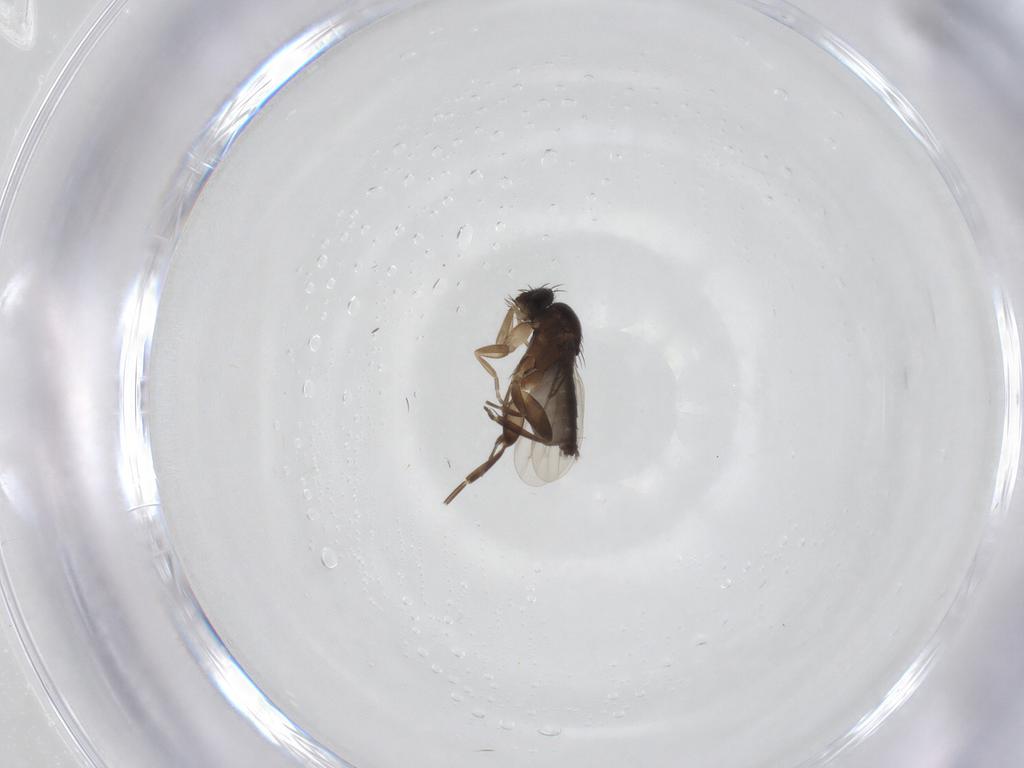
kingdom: Animalia
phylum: Arthropoda
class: Insecta
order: Diptera
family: Phoridae
